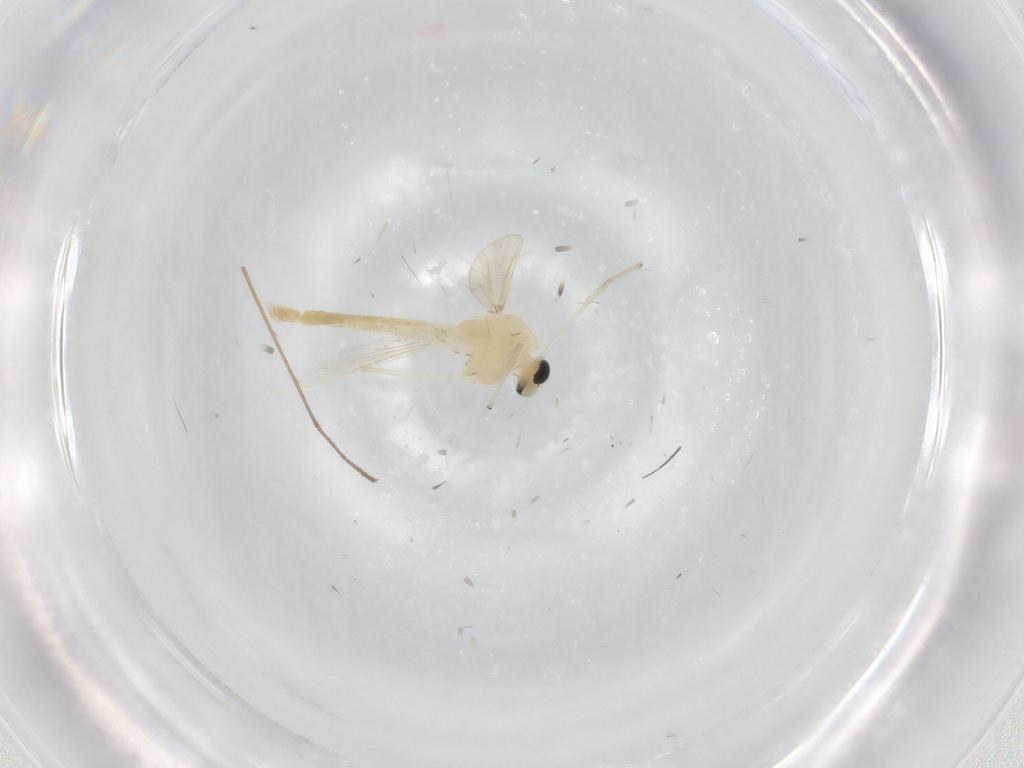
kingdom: Animalia
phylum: Arthropoda
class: Insecta
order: Diptera
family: Chironomidae
